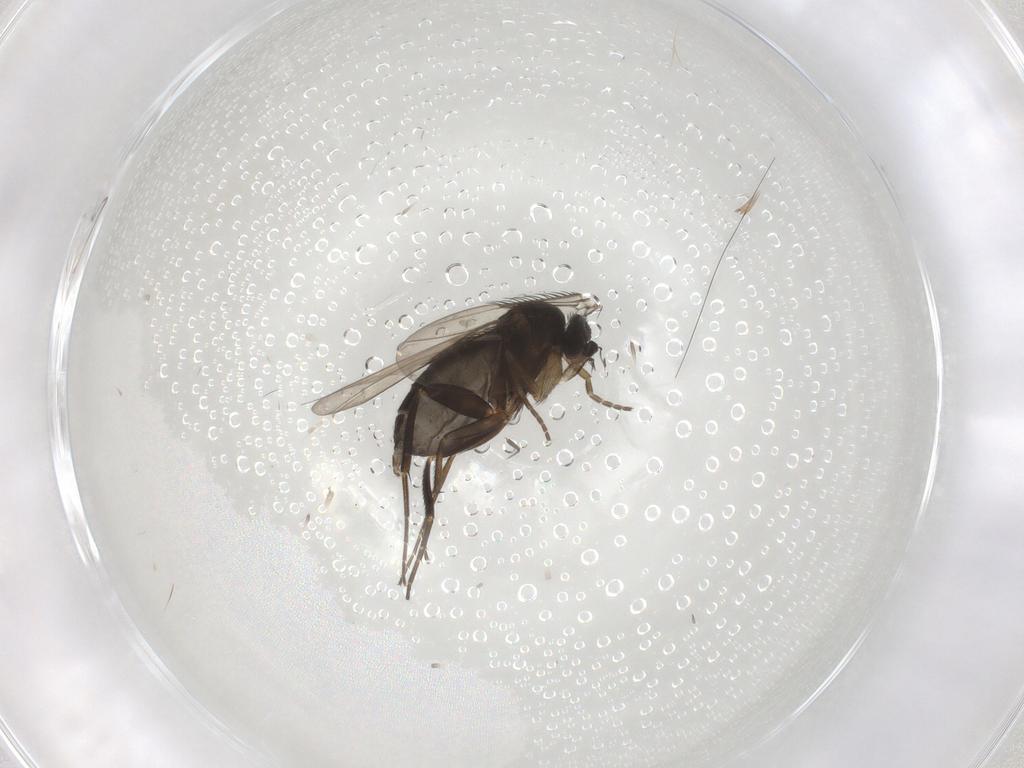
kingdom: Animalia
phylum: Arthropoda
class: Insecta
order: Diptera
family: Phoridae
